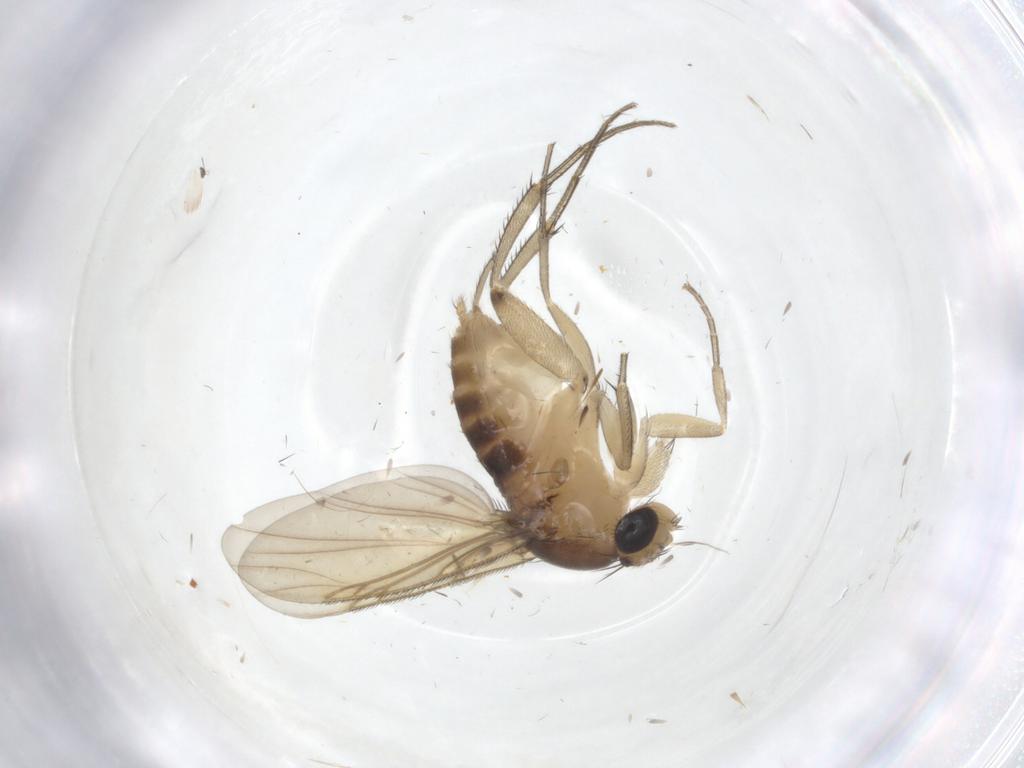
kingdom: Animalia
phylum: Arthropoda
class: Insecta
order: Diptera
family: Phoridae
